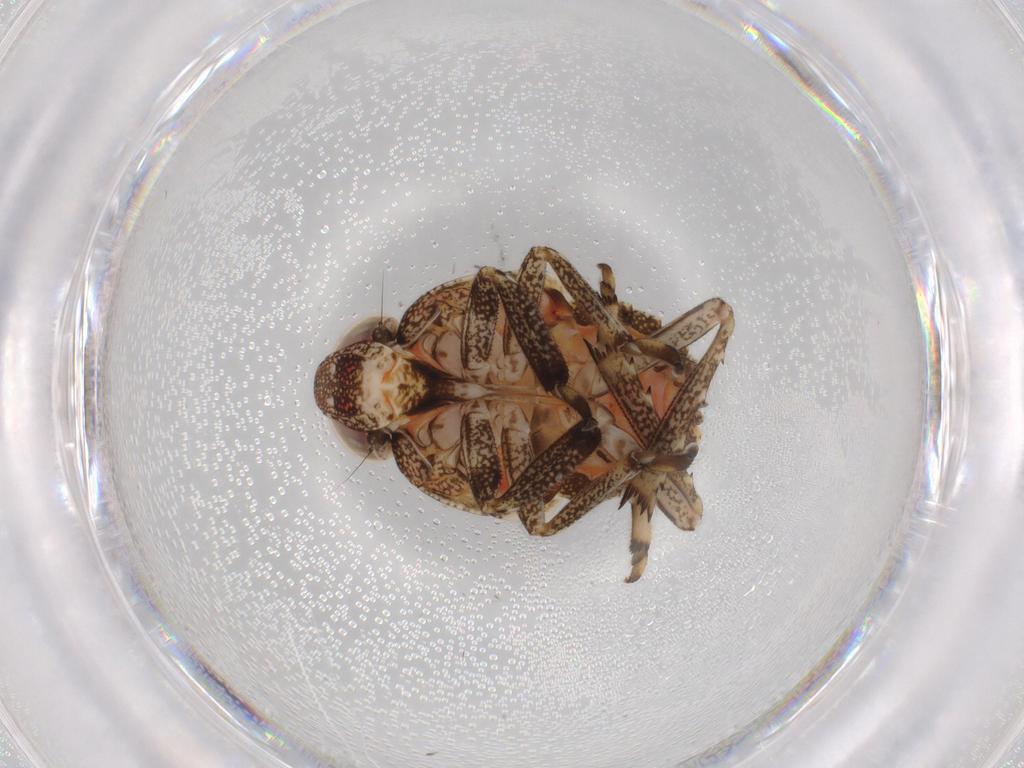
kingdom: Animalia
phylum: Arthropoda
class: Insecta
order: Hemiptera
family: Issidae
